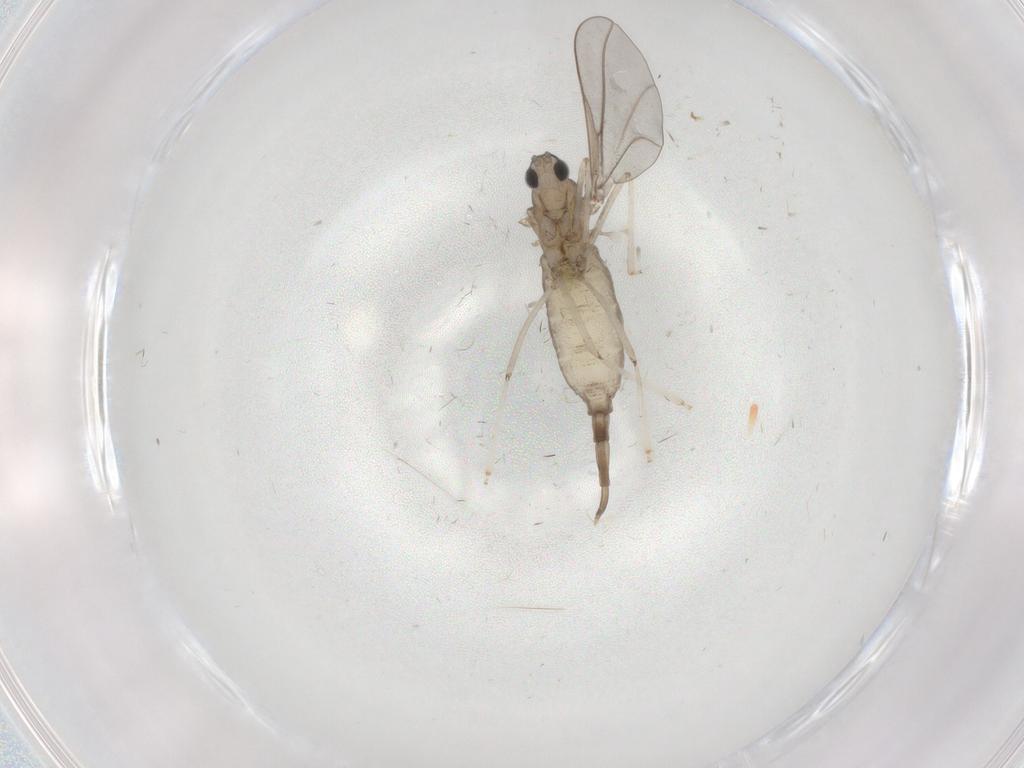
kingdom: Animalia
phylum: Arthropoda
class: Insecta
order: Diptera
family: Cecidomyiidae
